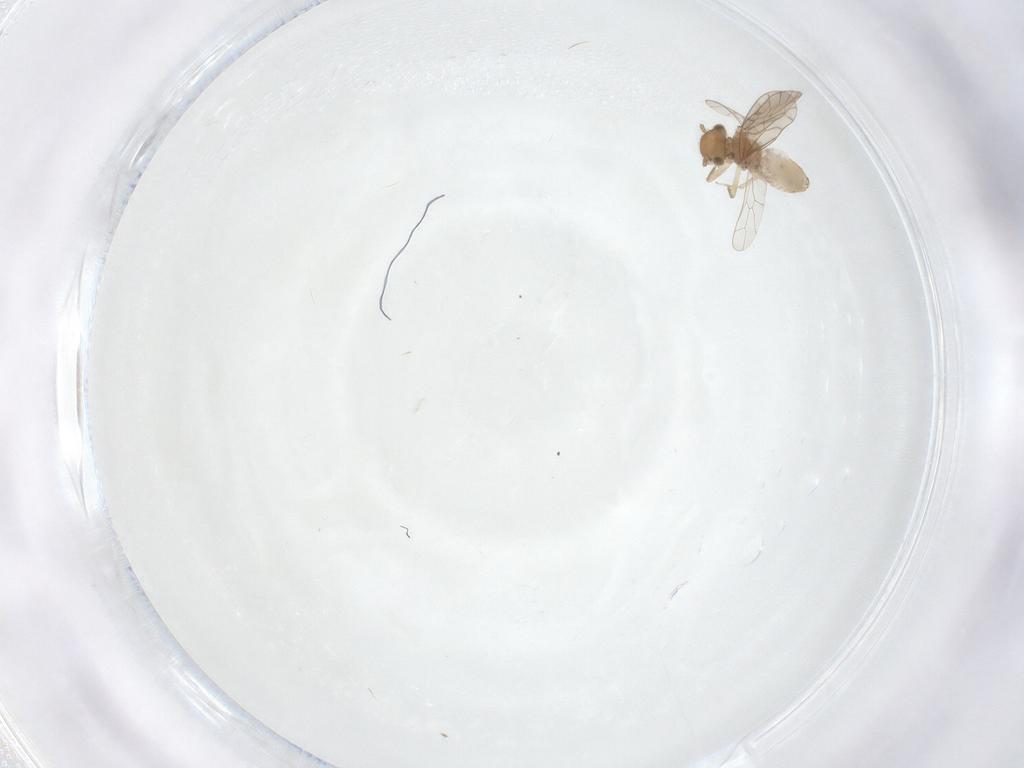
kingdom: Animalia
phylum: Arthropoda
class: Insecta
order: Psocodea
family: Ectopsocidae
